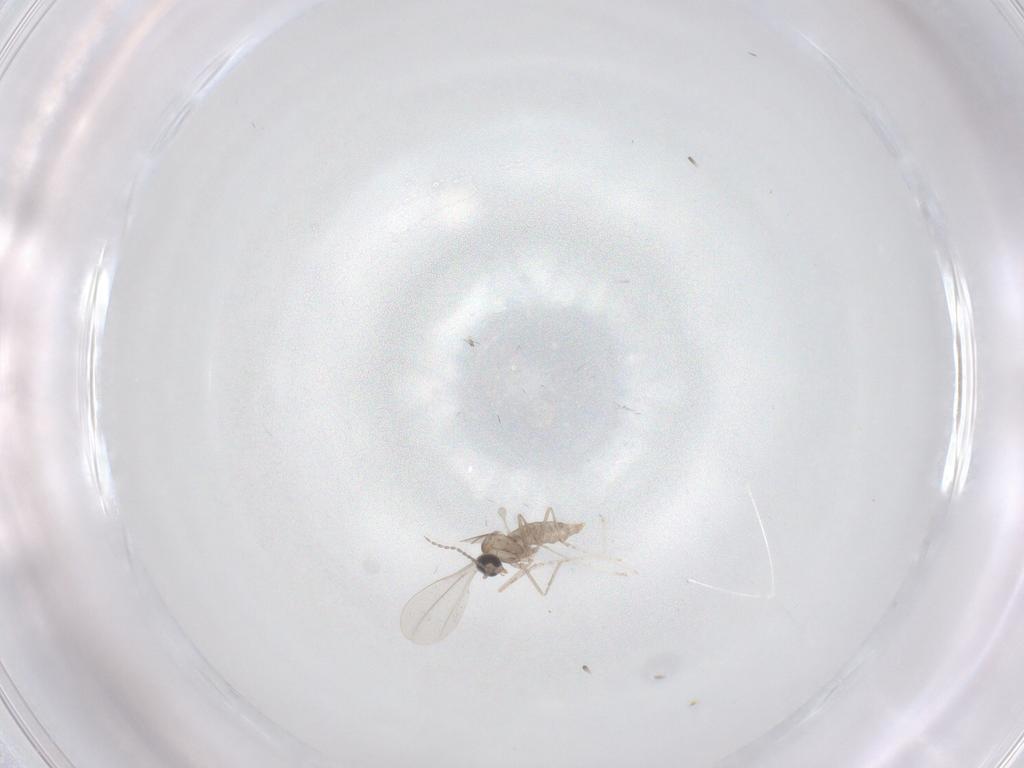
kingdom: Animalia
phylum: Arthropoda
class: Insecta
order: Diptera
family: Cecidomyiidae
